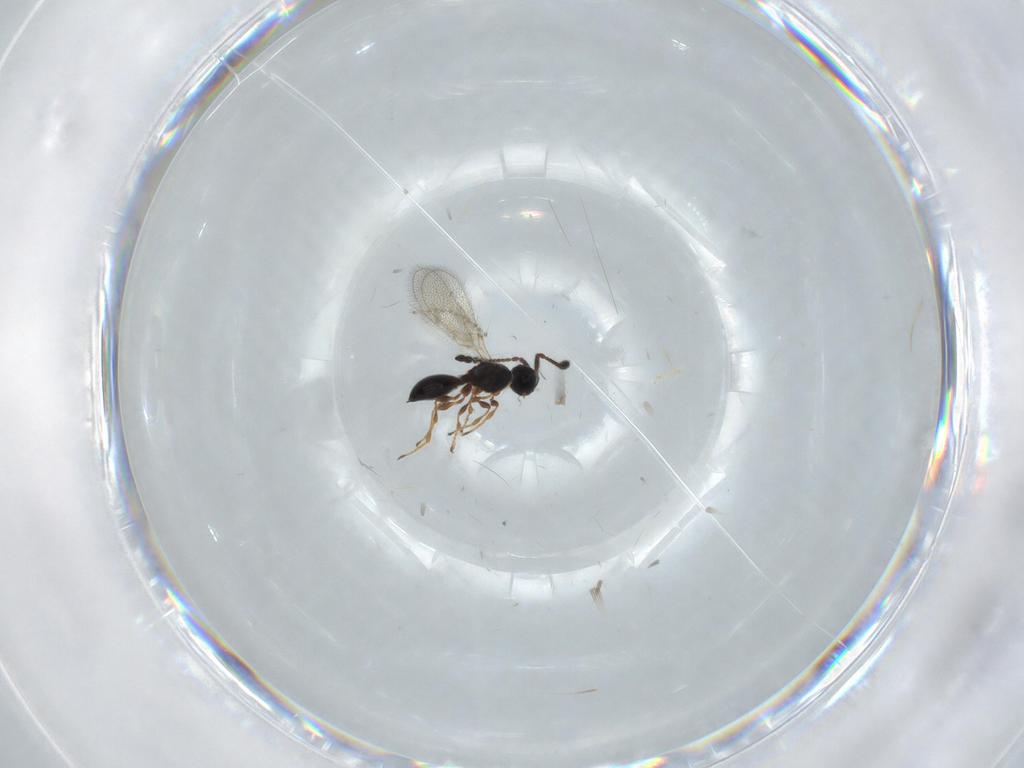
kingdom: Animalia
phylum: Arthropoda
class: Insecta
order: Hymenoptera
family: Diapriidae
